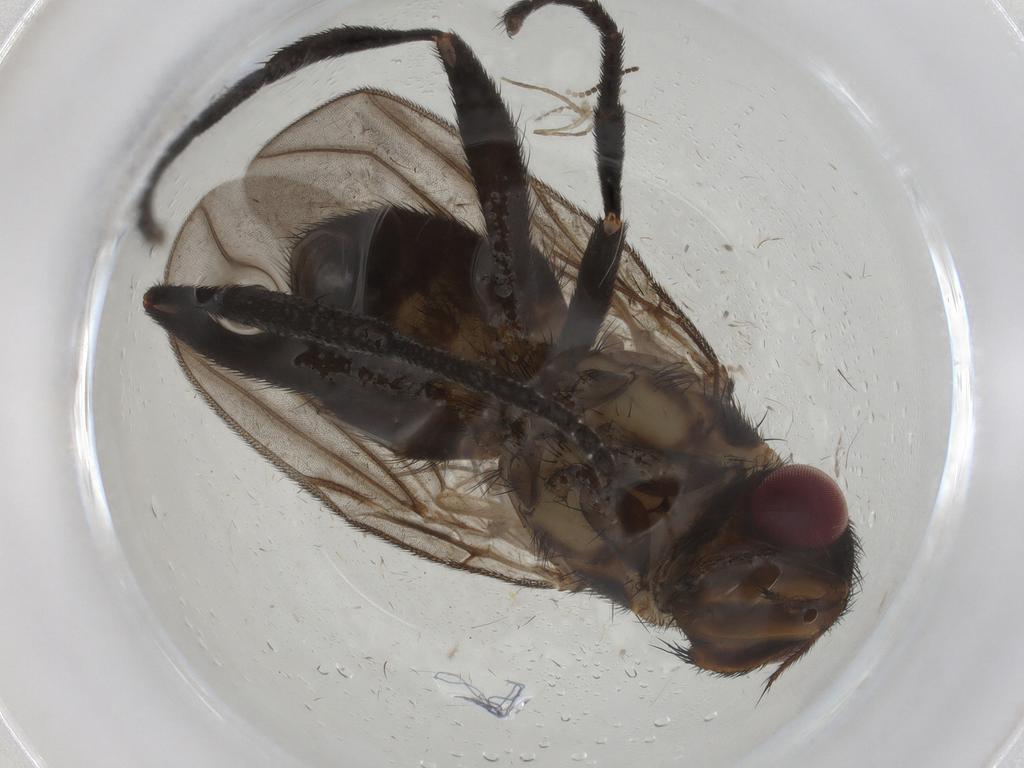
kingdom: Animalia
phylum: Arthropoda
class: Insecta
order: Diptera
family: Calliphoridae
